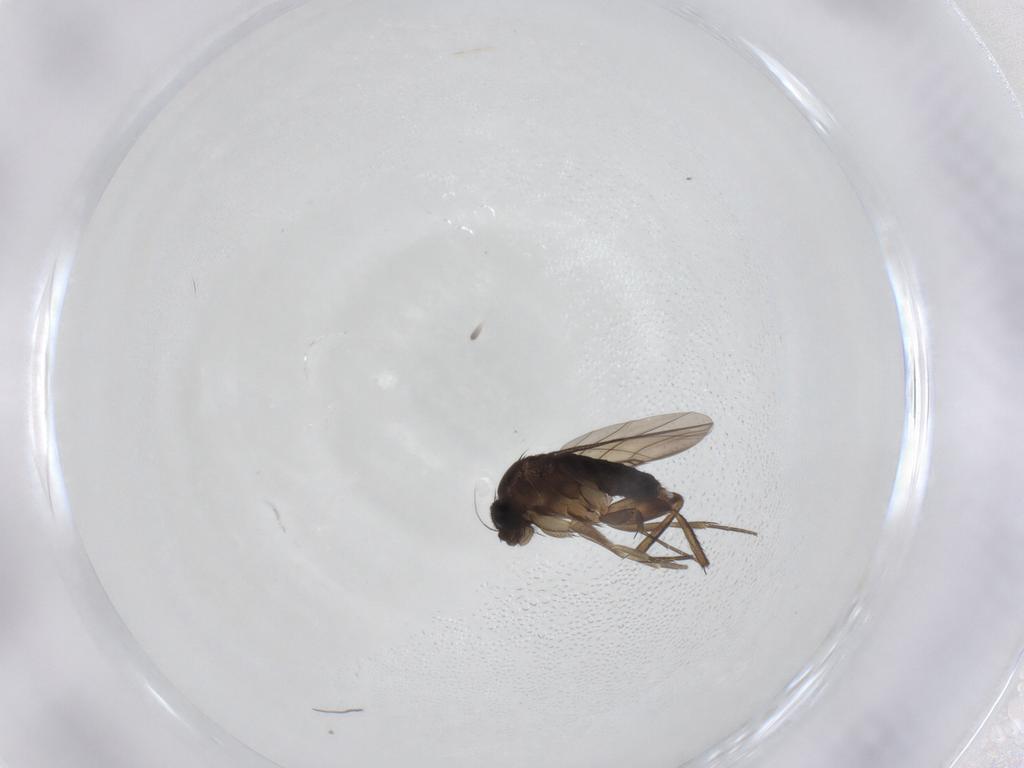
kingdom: Animalia
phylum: Arthropoda
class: Insecta
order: Diptera
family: Phoridae
